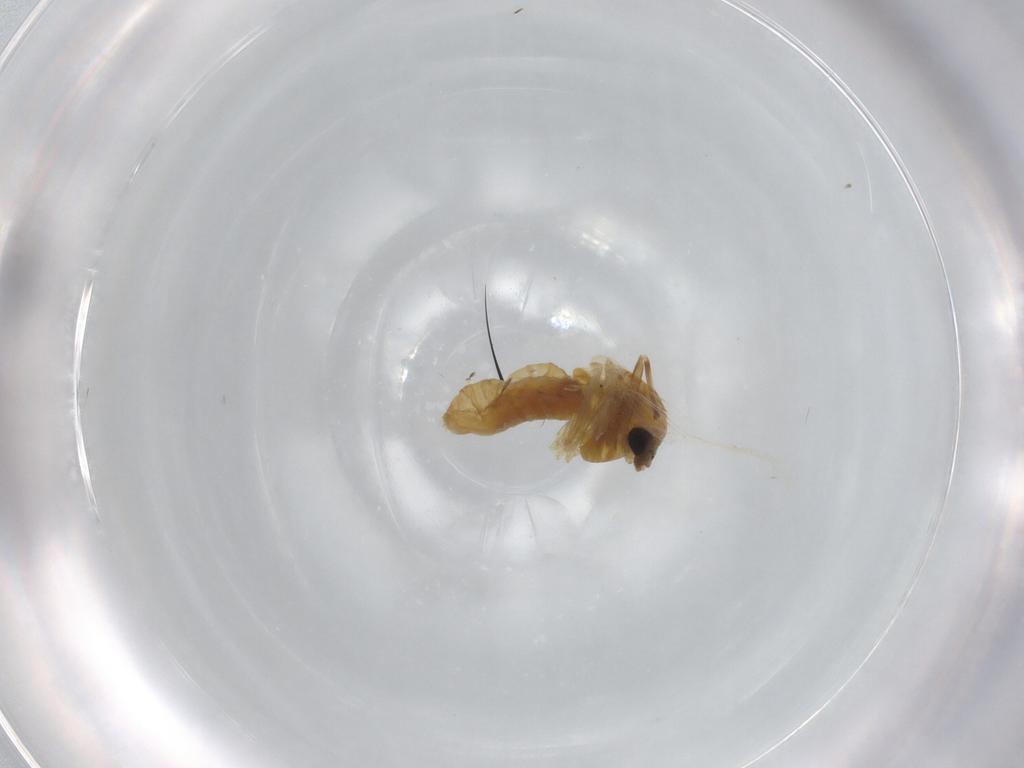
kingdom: Animalia
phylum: Arthropoda
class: Insecta
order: Diptera
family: Chironomidae
